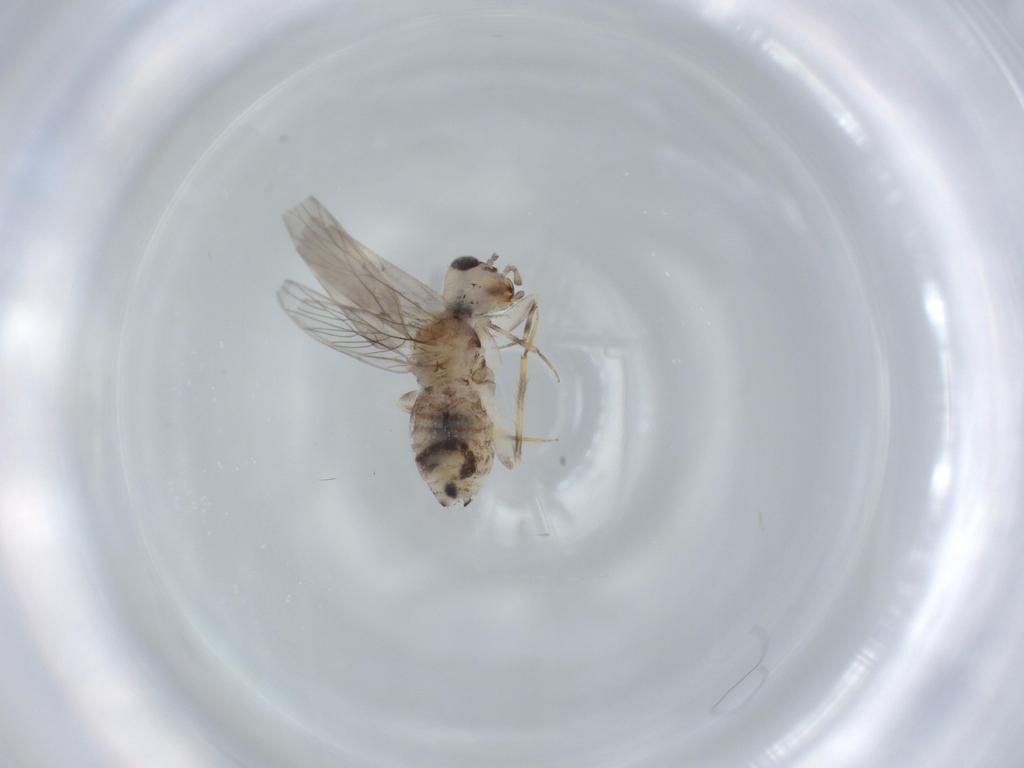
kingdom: Animalia
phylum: Arthropoda
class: Insecta
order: Psocodea
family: Lepidopsocidae
